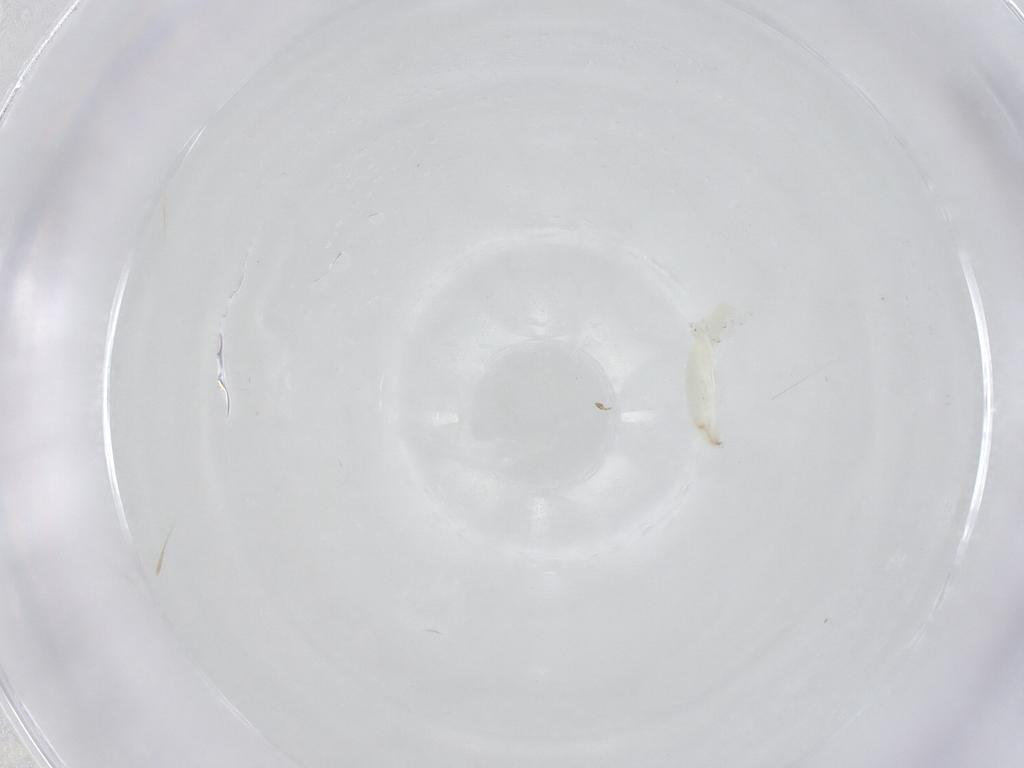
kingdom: Animalia
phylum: Arthropoda
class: Insecta
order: Diptera
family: Sarcophagidae
